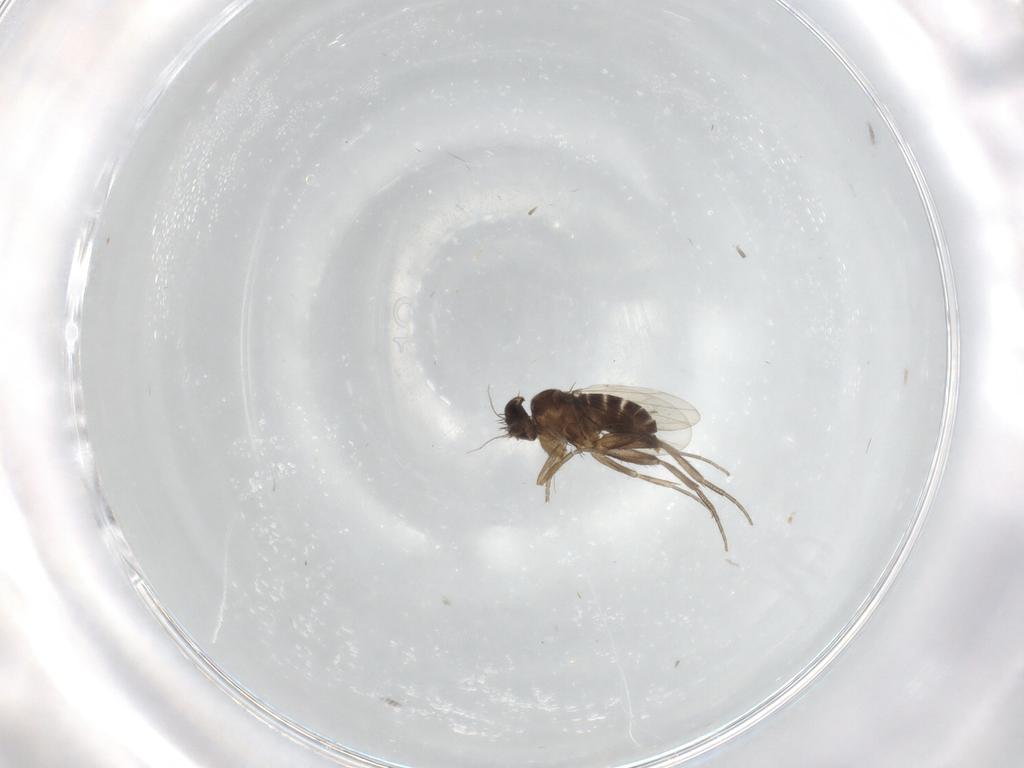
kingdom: Animalia
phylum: Arthropoda
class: Insecta
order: Diptera
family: Phoridae
